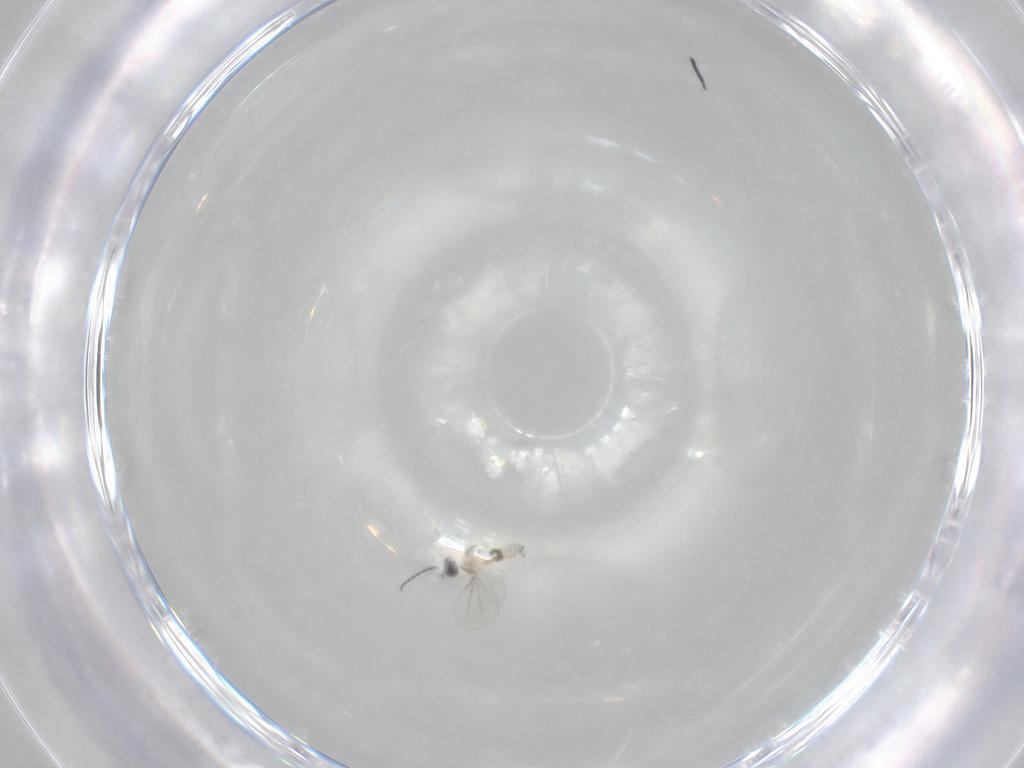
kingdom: Animalia
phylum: Arthropoda
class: Insecta
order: Diptera
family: Cecidomyiidae
